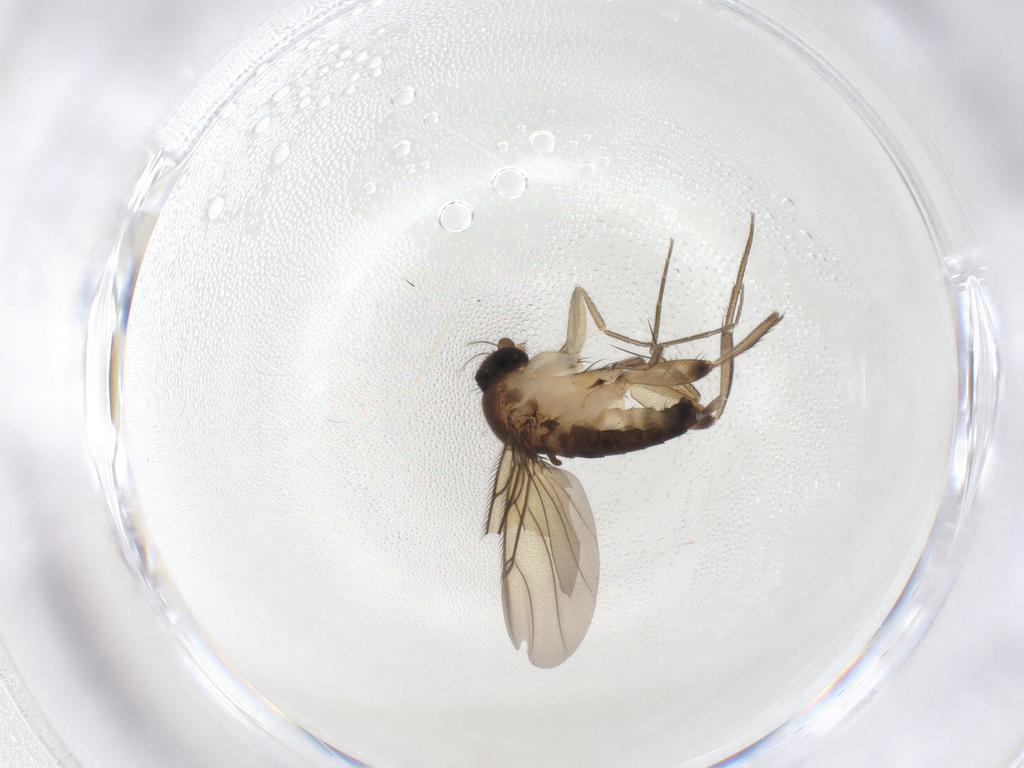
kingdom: Animalia
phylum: Arthropoda
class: Insecta
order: Diptera
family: Phoridae
